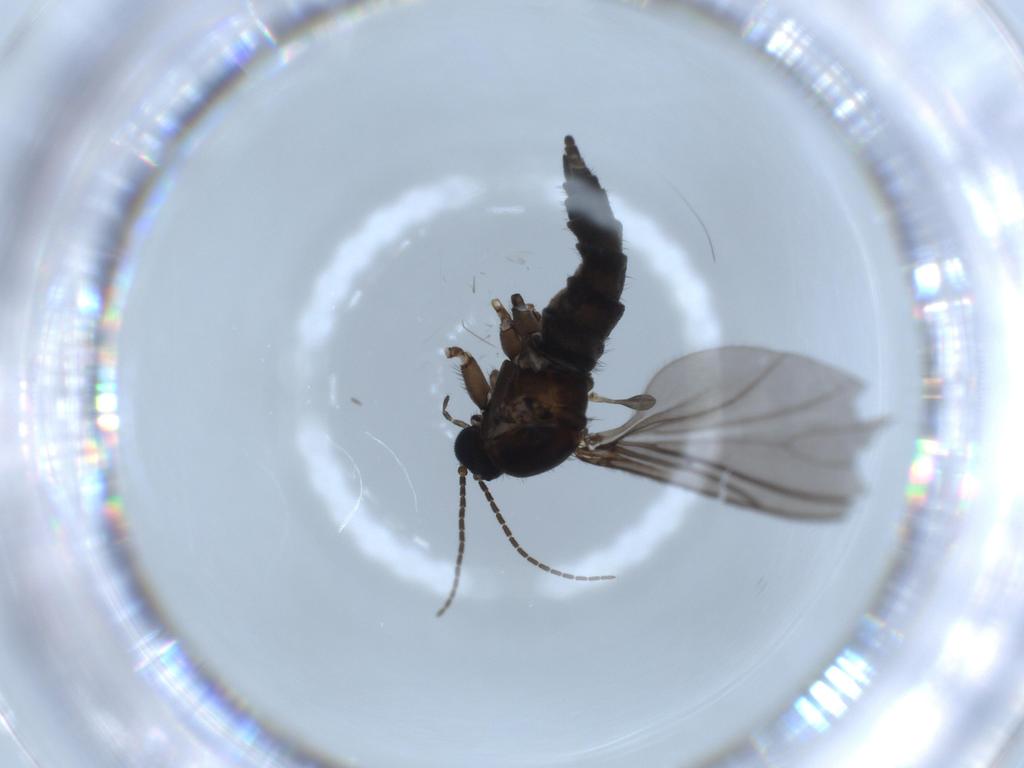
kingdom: Animalia
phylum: Arthropoda
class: Insecta
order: Diptera
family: Sciaridae
